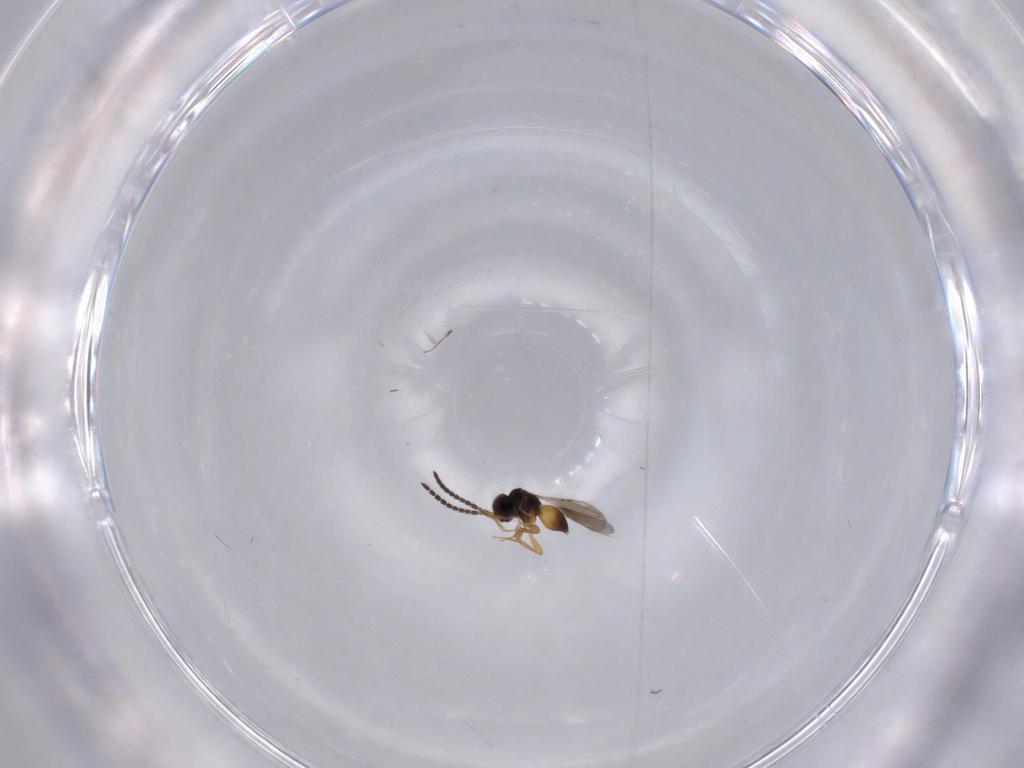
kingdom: Animalia
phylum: Arthropoda
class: Insecta
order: Hymenoptera
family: Scelionidae
